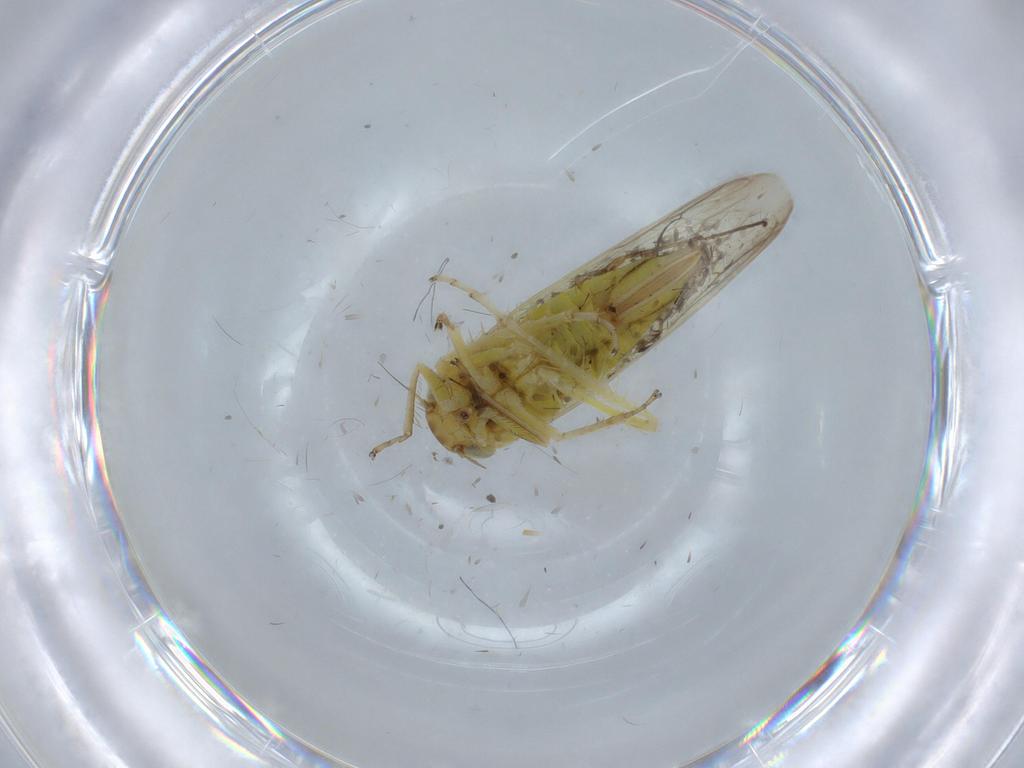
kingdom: Animalia
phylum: Arthropoda
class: Insecta
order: Hemiptera
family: Cicadellidae
